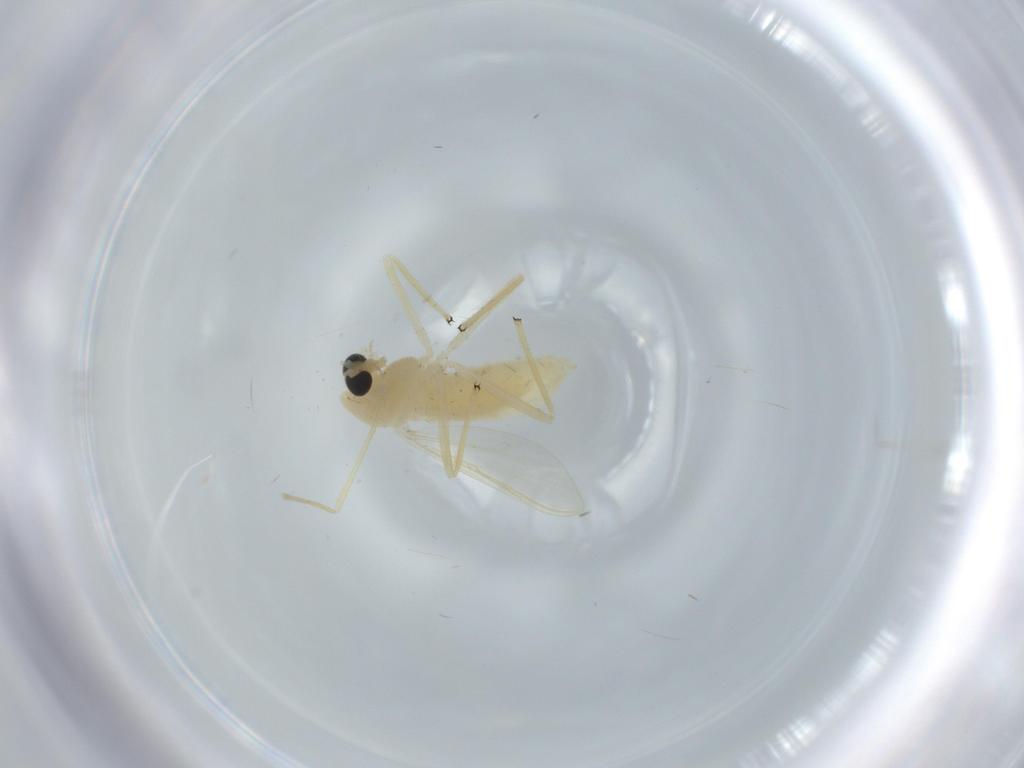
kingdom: Animalia
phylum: Arthropoda
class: Insecta
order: Diptera
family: Chironomidae
